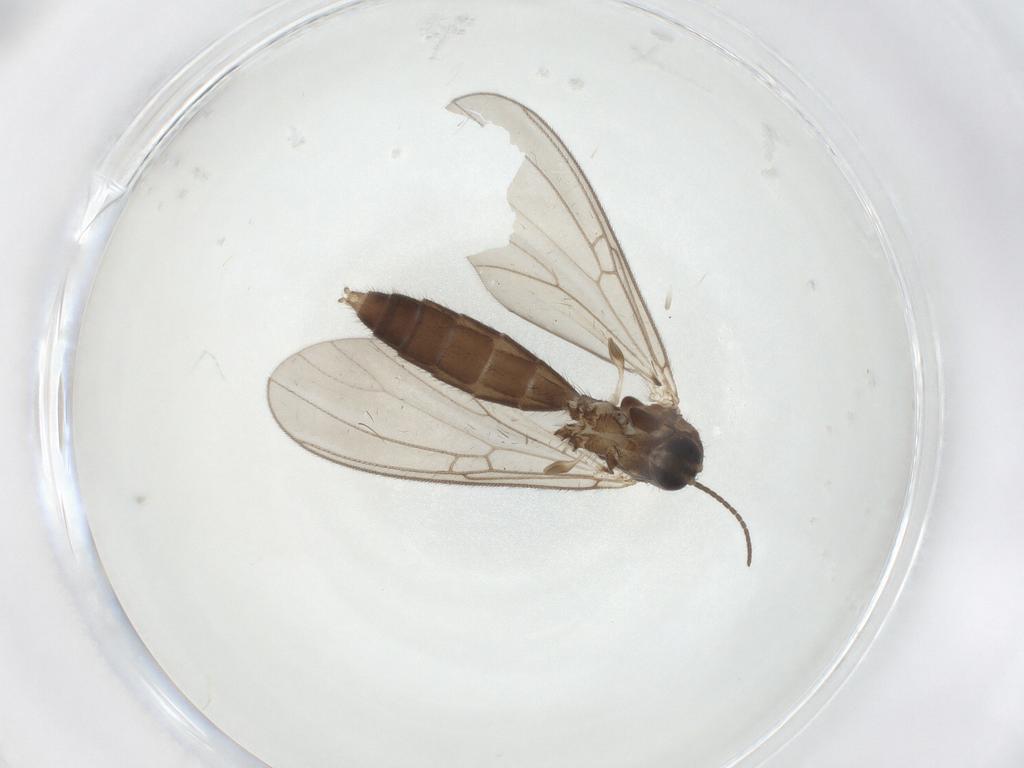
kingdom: Animalia
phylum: Arthropoda
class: Insecta
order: Diptera
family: Mycetophilidae
